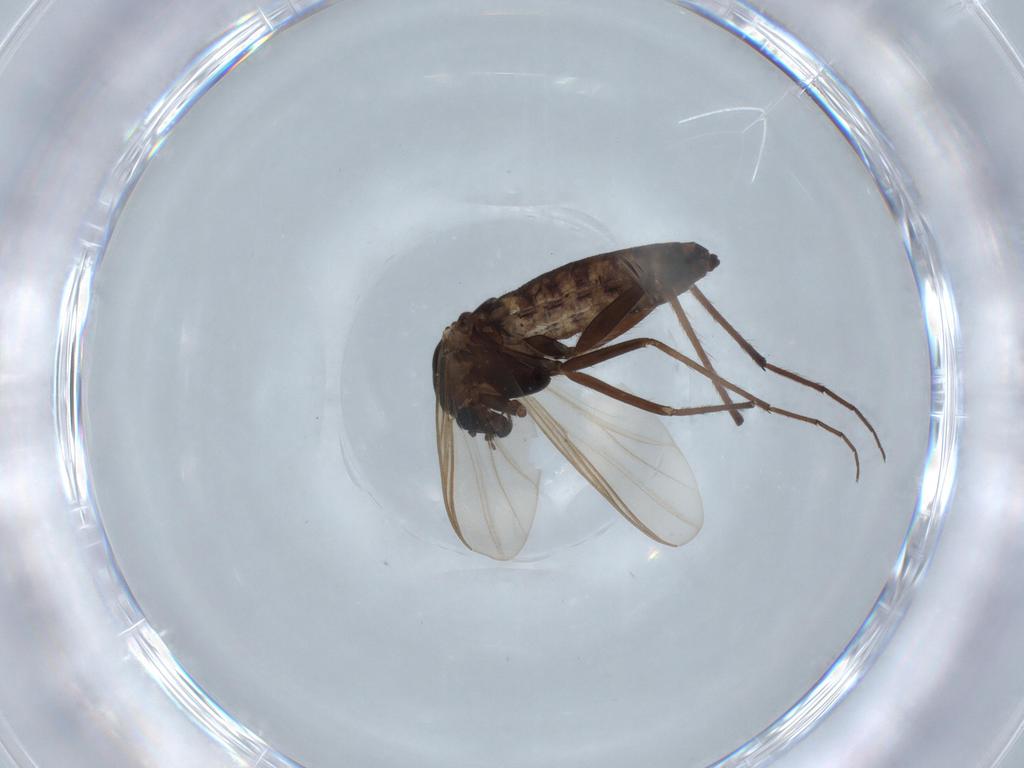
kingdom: Animalia
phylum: Arthropoda
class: Insecta
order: Diptera
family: Chironomidae
